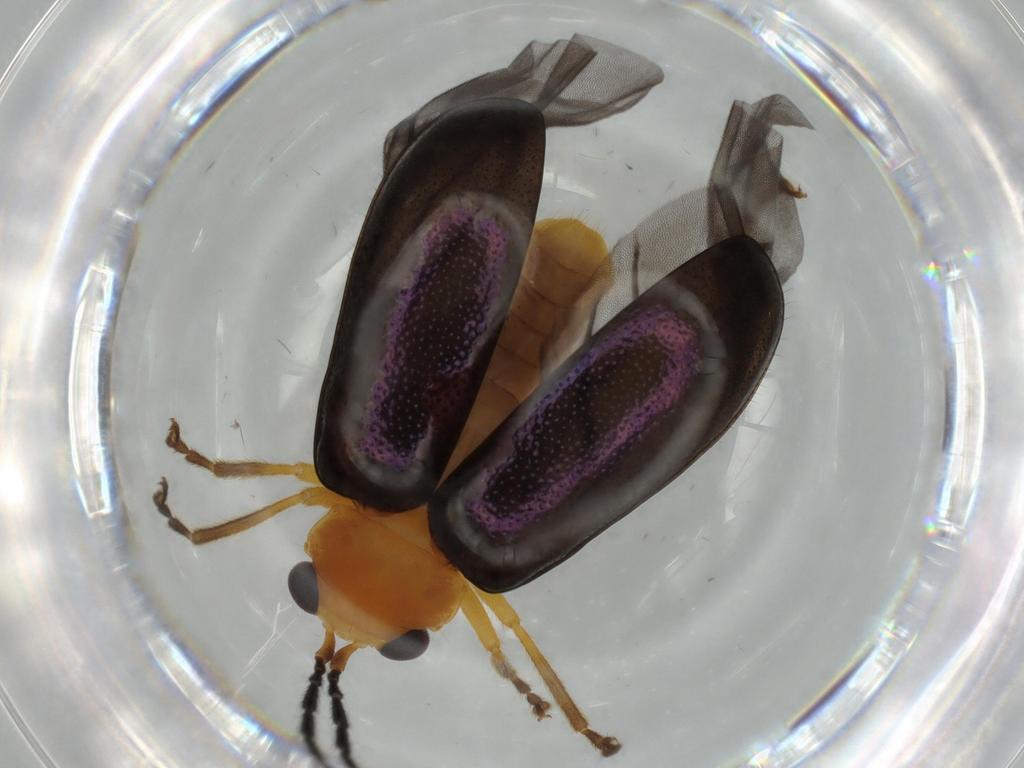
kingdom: Animalia
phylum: Arthropoda
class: Insecta
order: Coleoptera
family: Chrysomelidae
